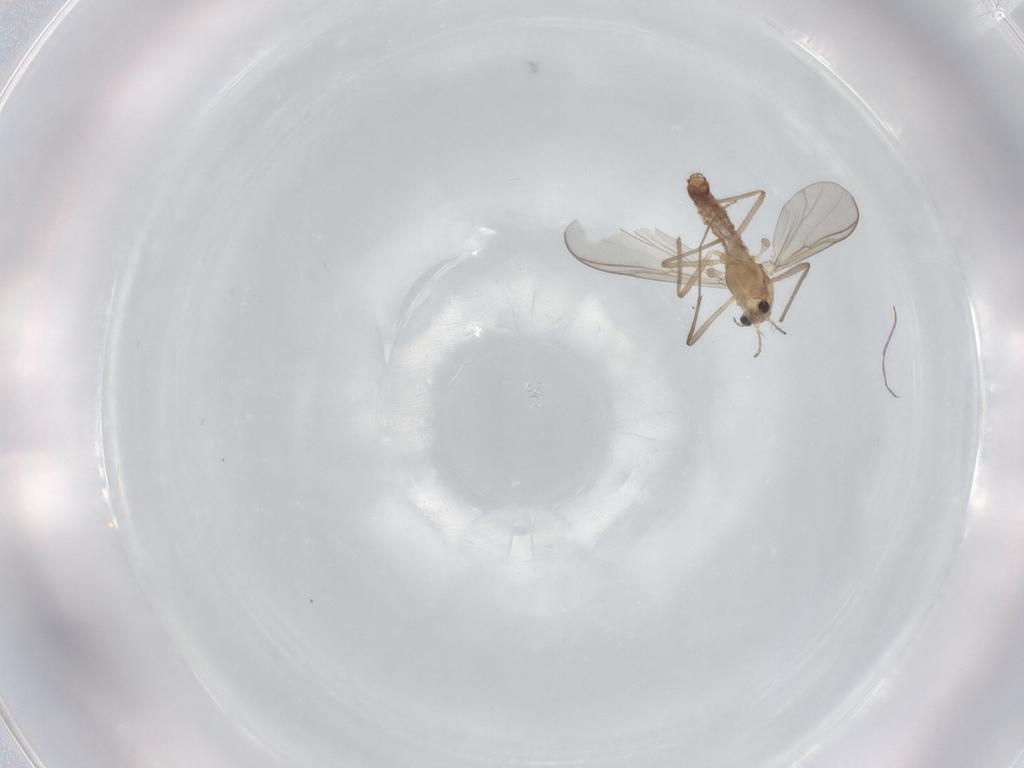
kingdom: Animalia
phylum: Arthropoda
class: Insecta
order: Diptera
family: Chironomidae
